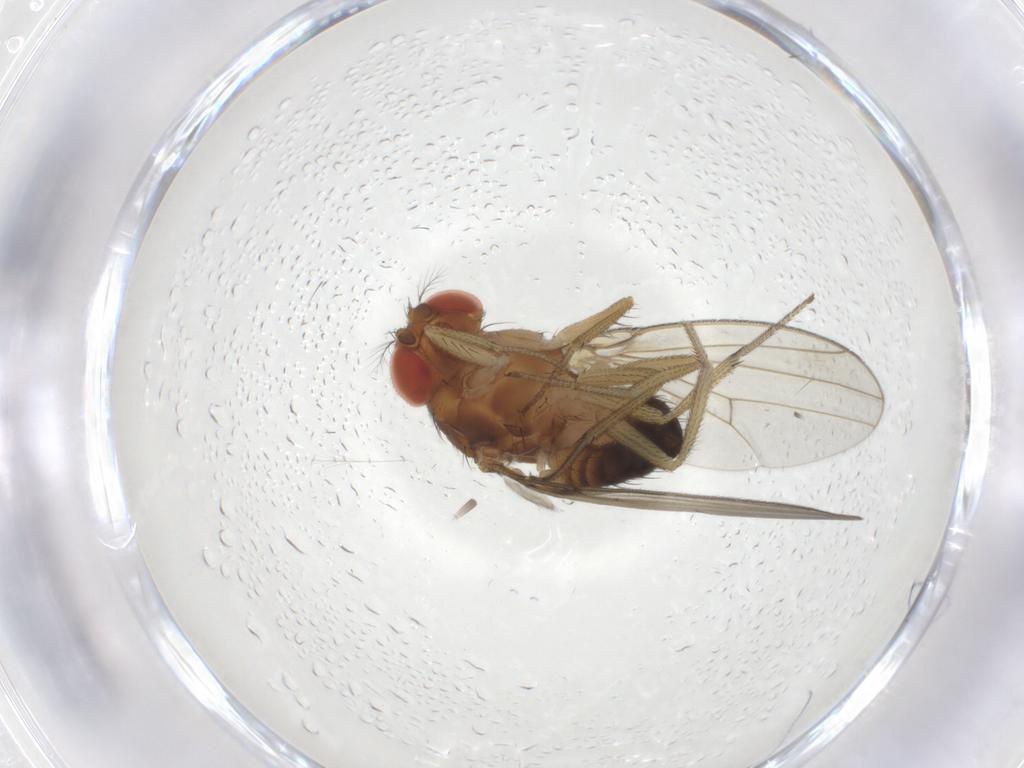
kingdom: Animalia
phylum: Arthropoda
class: Insecta
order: Diptera
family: Drosophilidae
